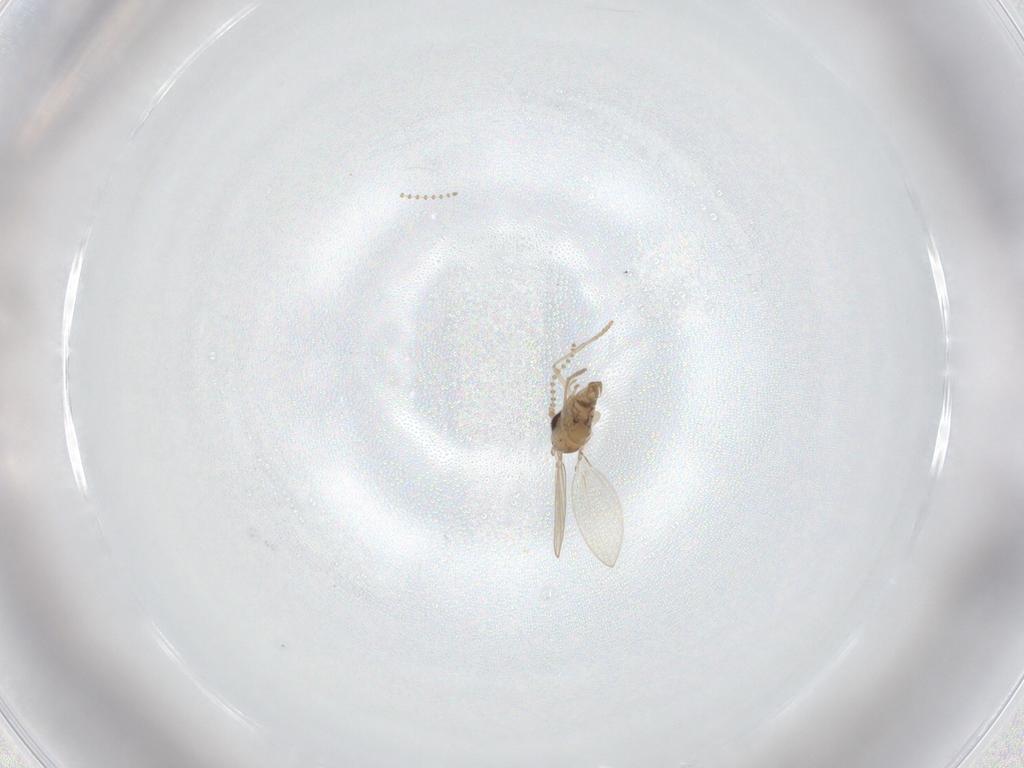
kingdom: Animalia
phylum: Arthropoda
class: Insecta
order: Diptera
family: Psychodidae
